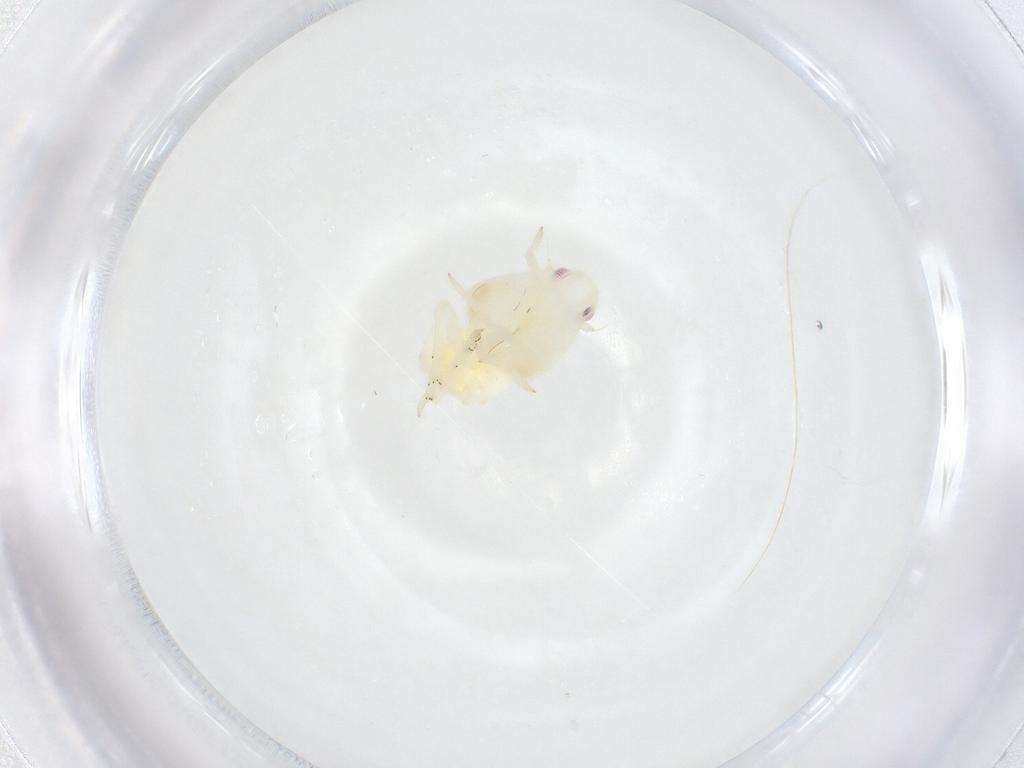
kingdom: Animalia
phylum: Arthropoda
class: Insecta
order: Hemiptera
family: Flatidae
